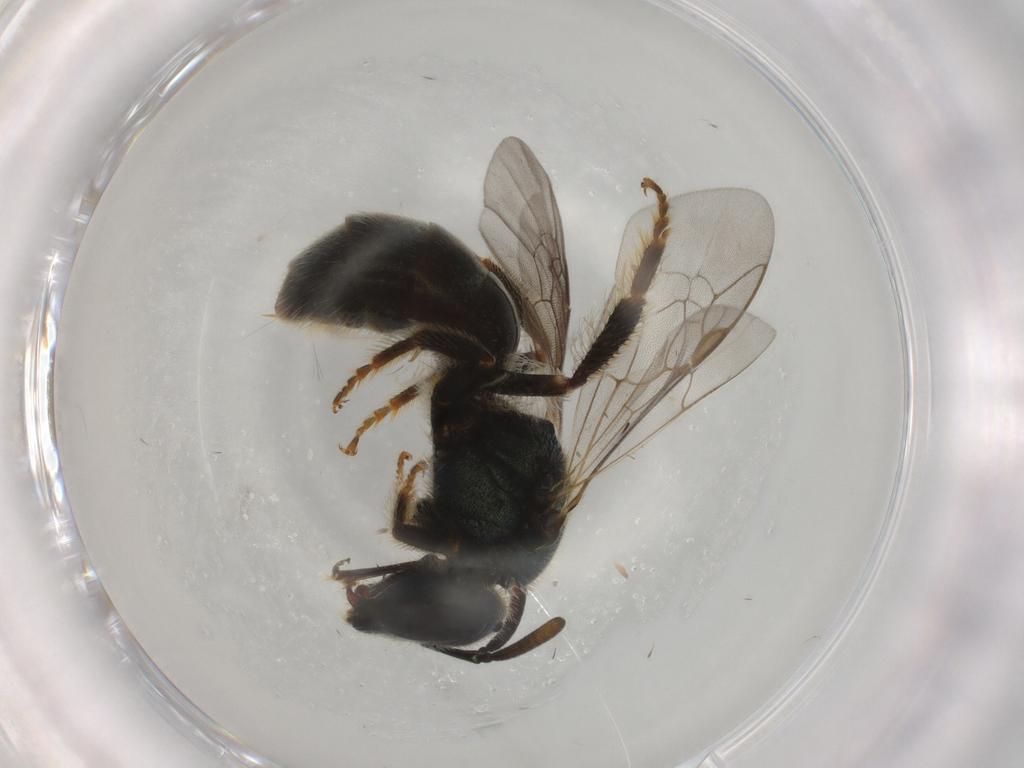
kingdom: Animalia
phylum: Arthropoda
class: Insecta
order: Hymenoptera
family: Halictidae
